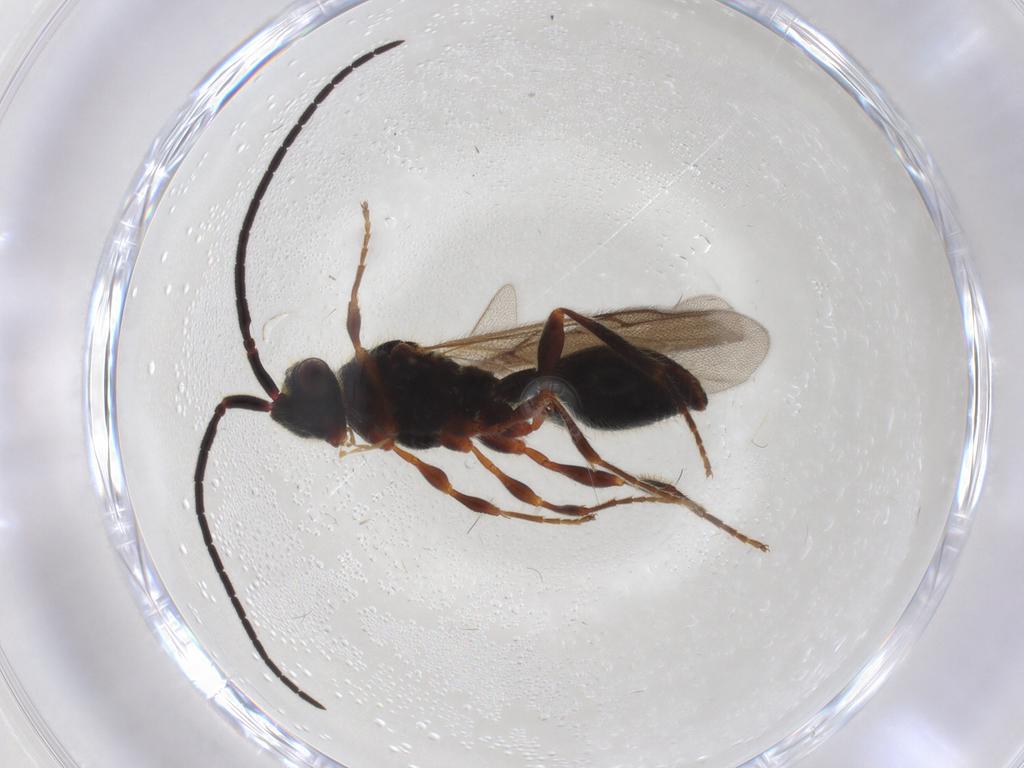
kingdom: Animalia
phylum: Arthropoda
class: Insecta
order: Hymenoptera
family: Diapriidae
